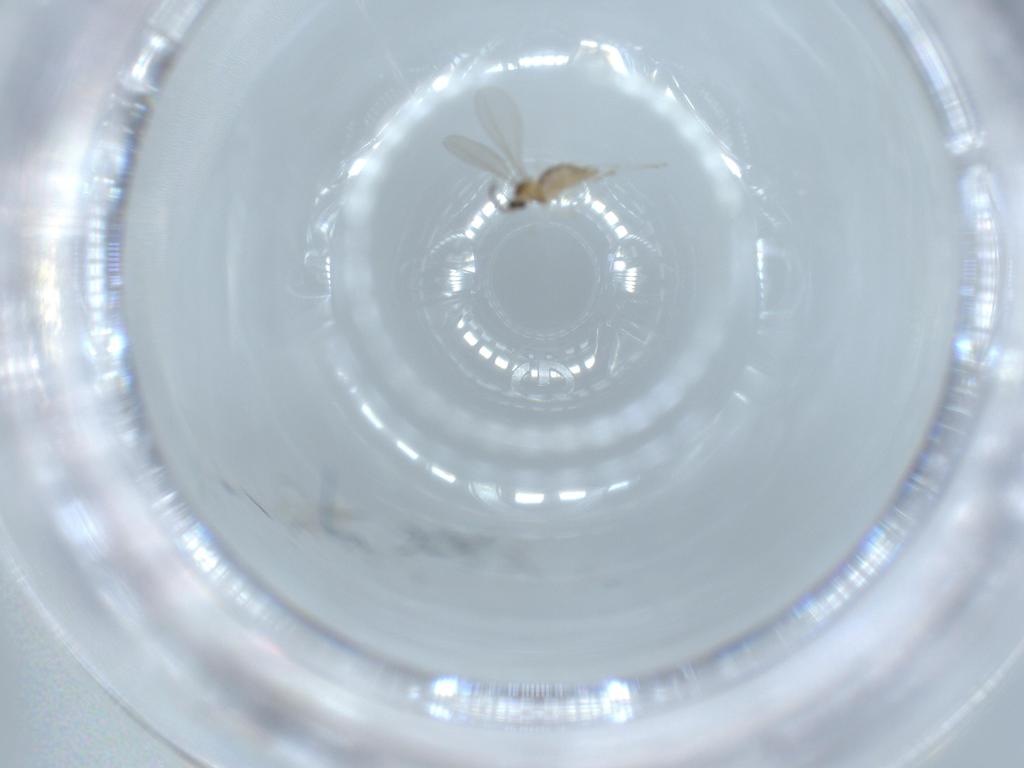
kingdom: Animalia
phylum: Arthropoda
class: Insecta
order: Diptera
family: Cecidomyiidae
